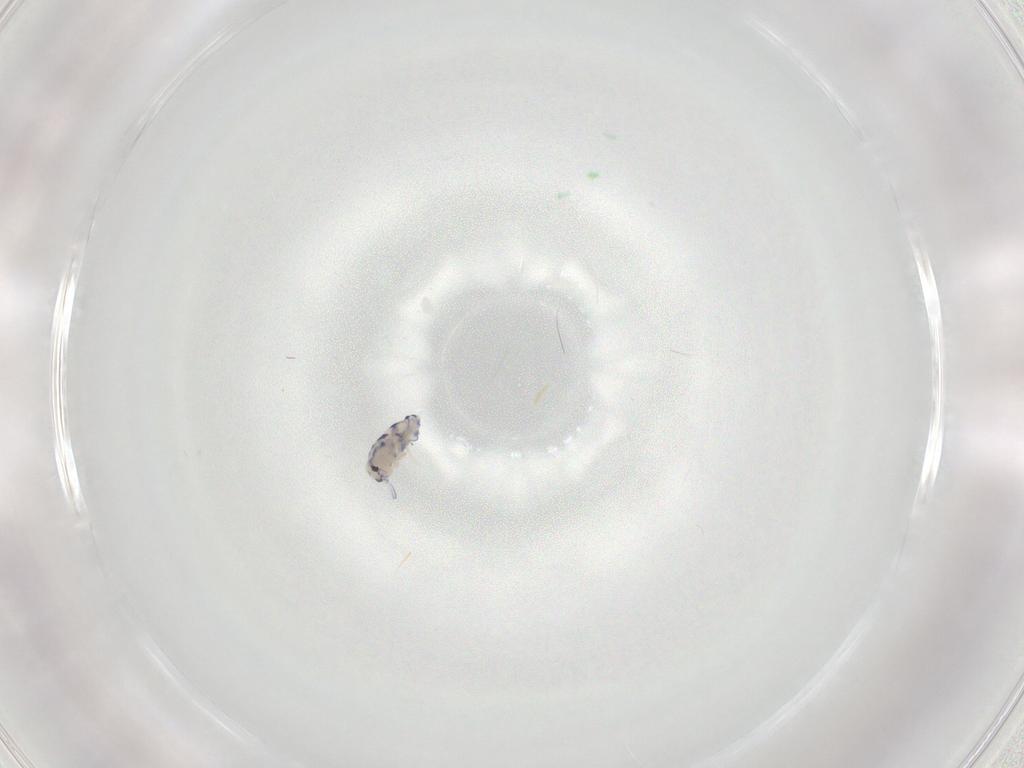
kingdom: Animalia
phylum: Arthropoda
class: Collembola
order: Entomobryomorpha
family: Entomobryidae
